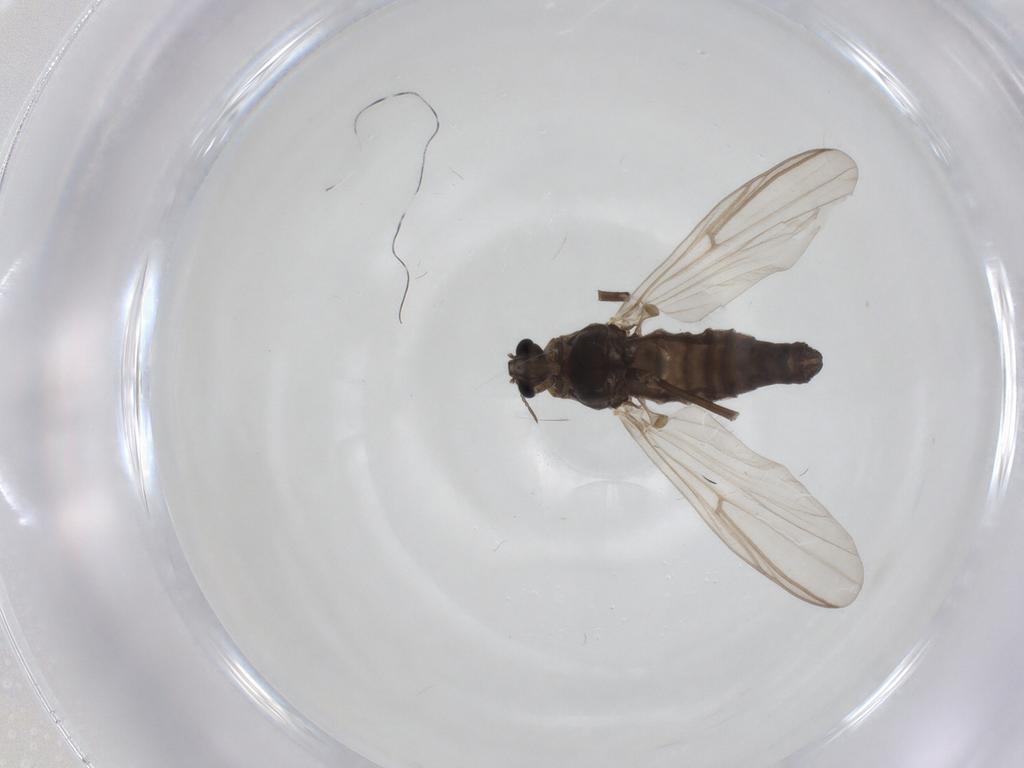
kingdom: Animalia
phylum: Arthropoda
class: Insecta
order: Diptera
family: Chironomidae
